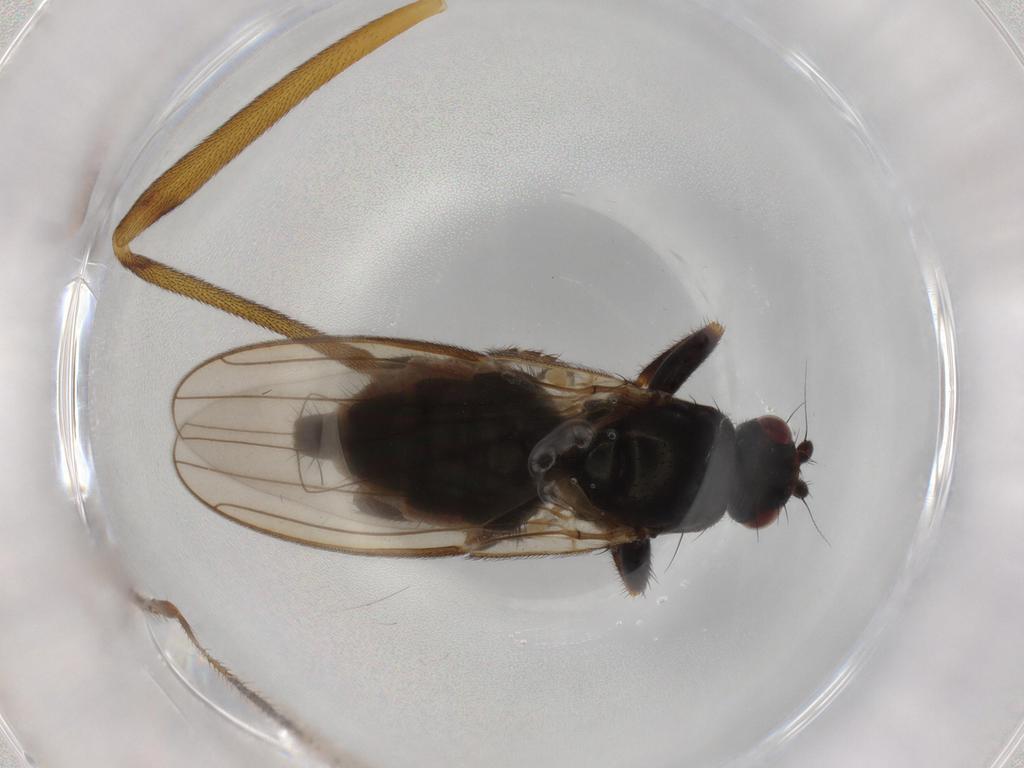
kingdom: Animalia
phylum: Arthropoda
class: Insecta
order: Diptera
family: Sphaeroceridae
